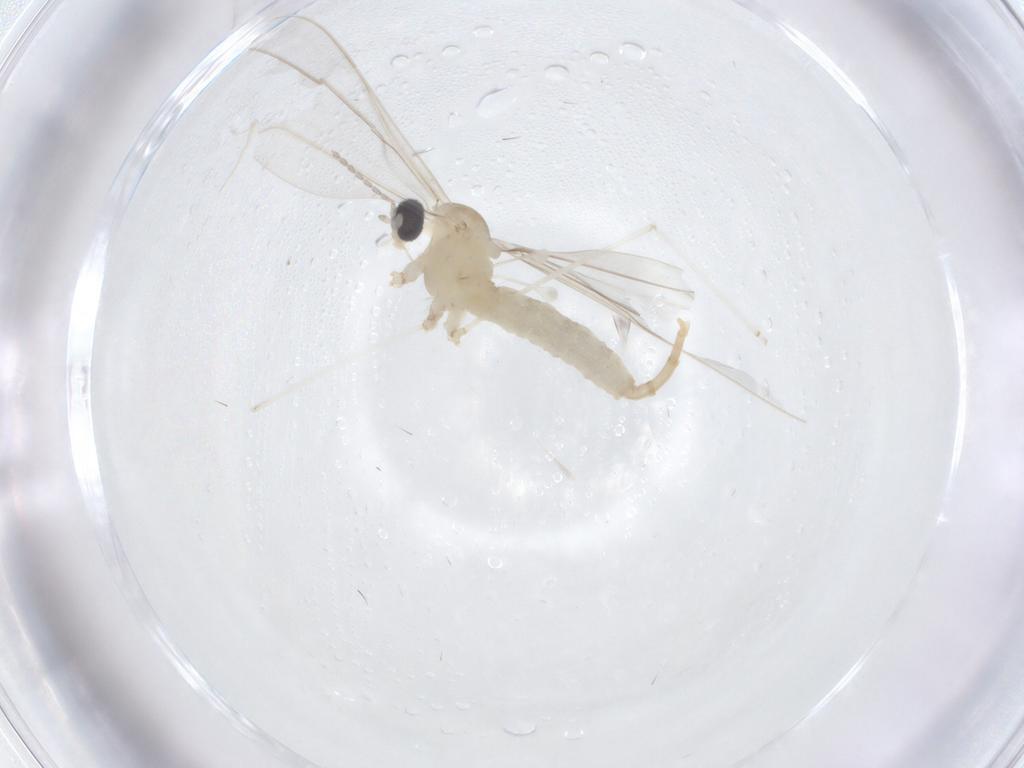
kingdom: Animalia
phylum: Arthropoda
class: Insecta
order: Diptera
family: Cecidomyiidae
